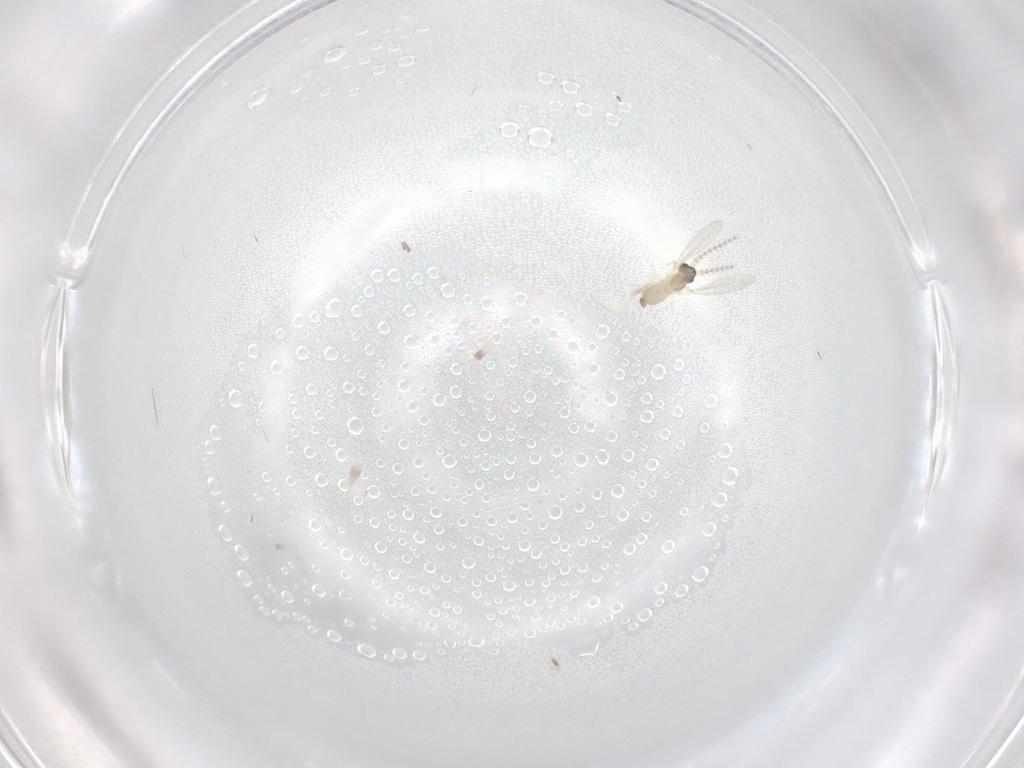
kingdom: Animalia
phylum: Arthropoda
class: Insecta
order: Diptera
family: Cecidomyiidae
